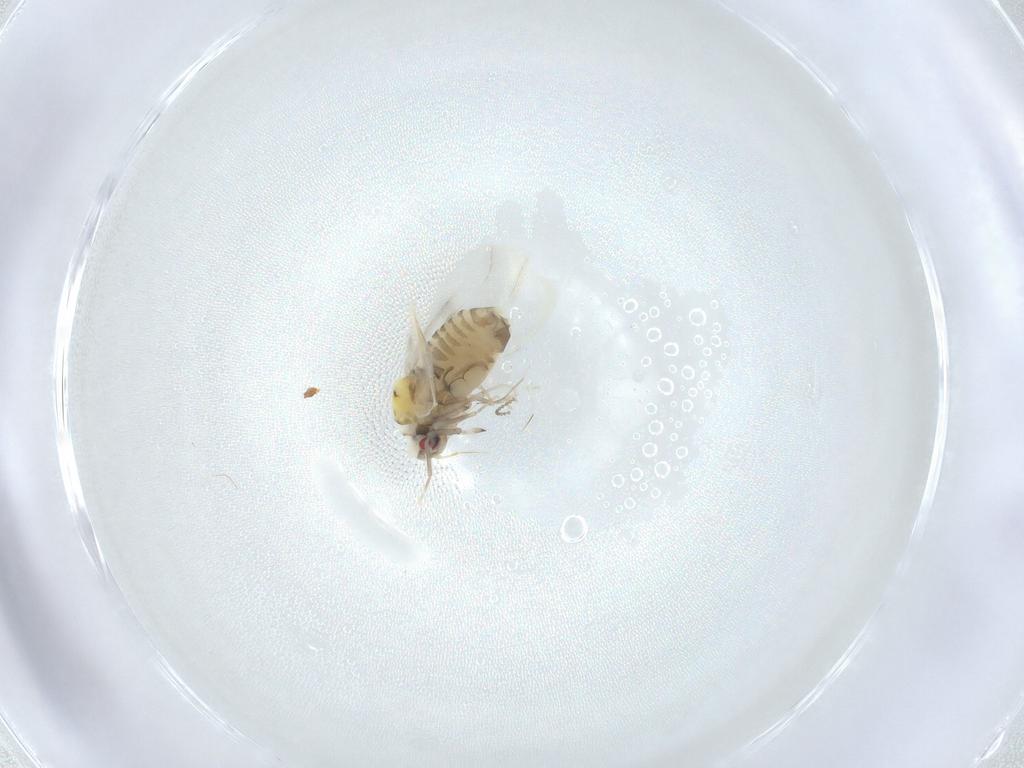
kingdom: Animalia
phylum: Arthropoda
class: Insecta
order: Hemiptera
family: Aleyrodidae
